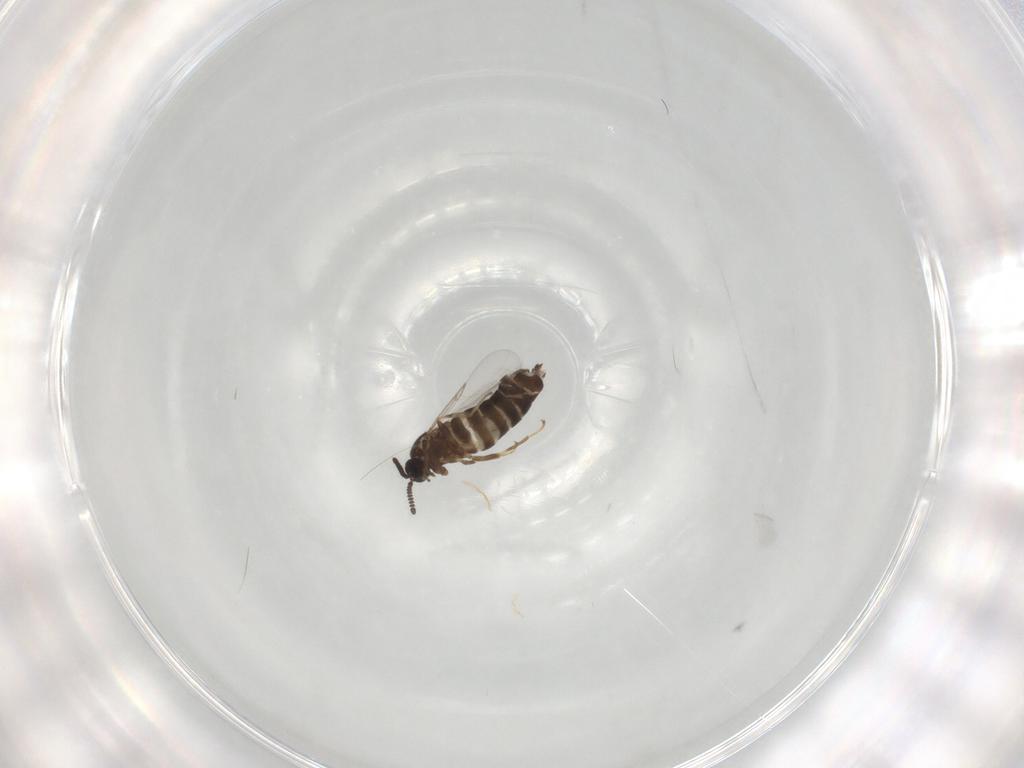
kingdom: Animalia
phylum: Arthropoda
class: Insecta
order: Diptera
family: Scatopsidae
